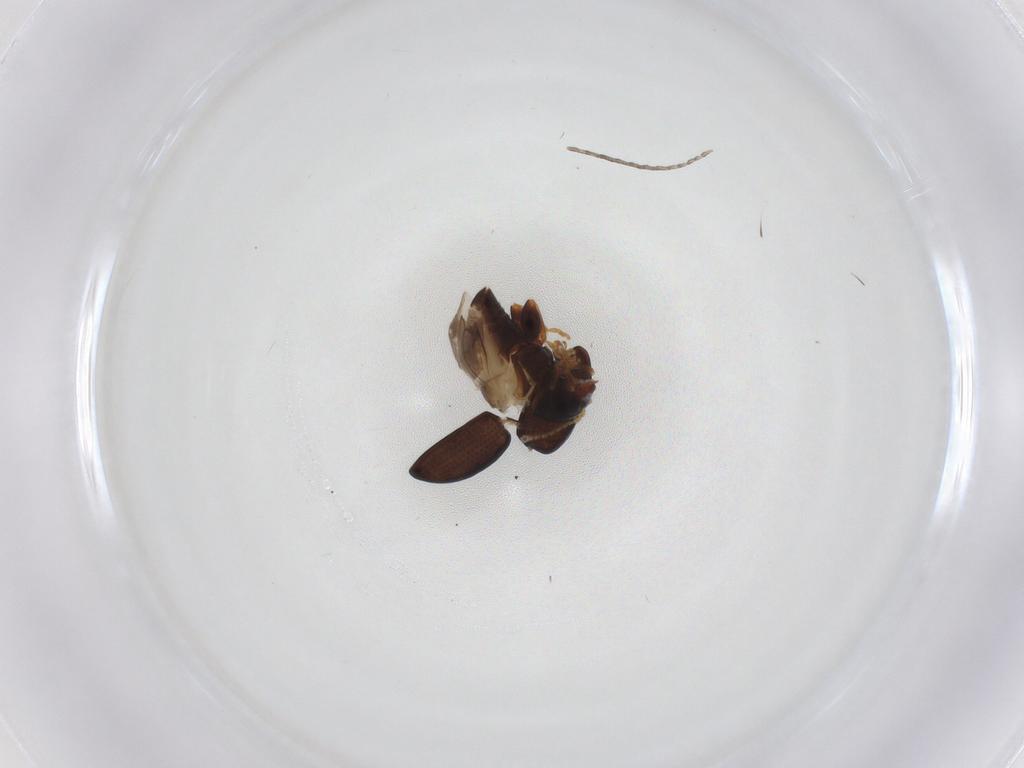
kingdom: Animalia
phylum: Arthropoda
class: Insecta
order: Coleoptera
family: Chrysomelidae
